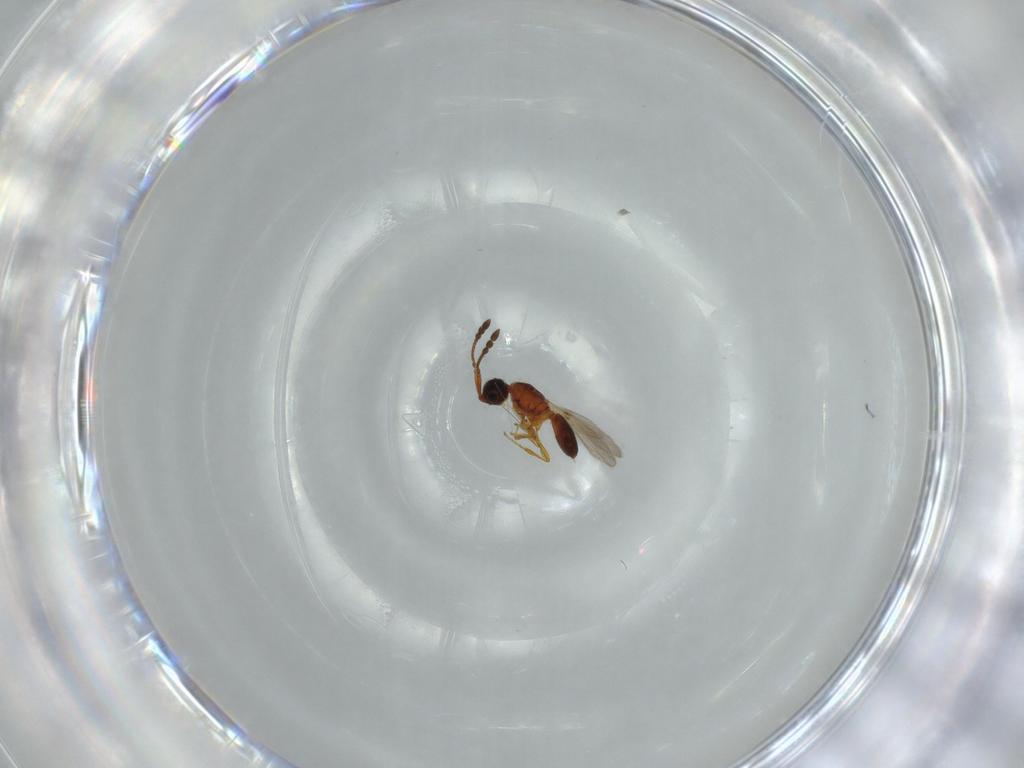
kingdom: Animalia
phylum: Arthropoda
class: Insecta
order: Hymenoptera
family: Diapriidae
